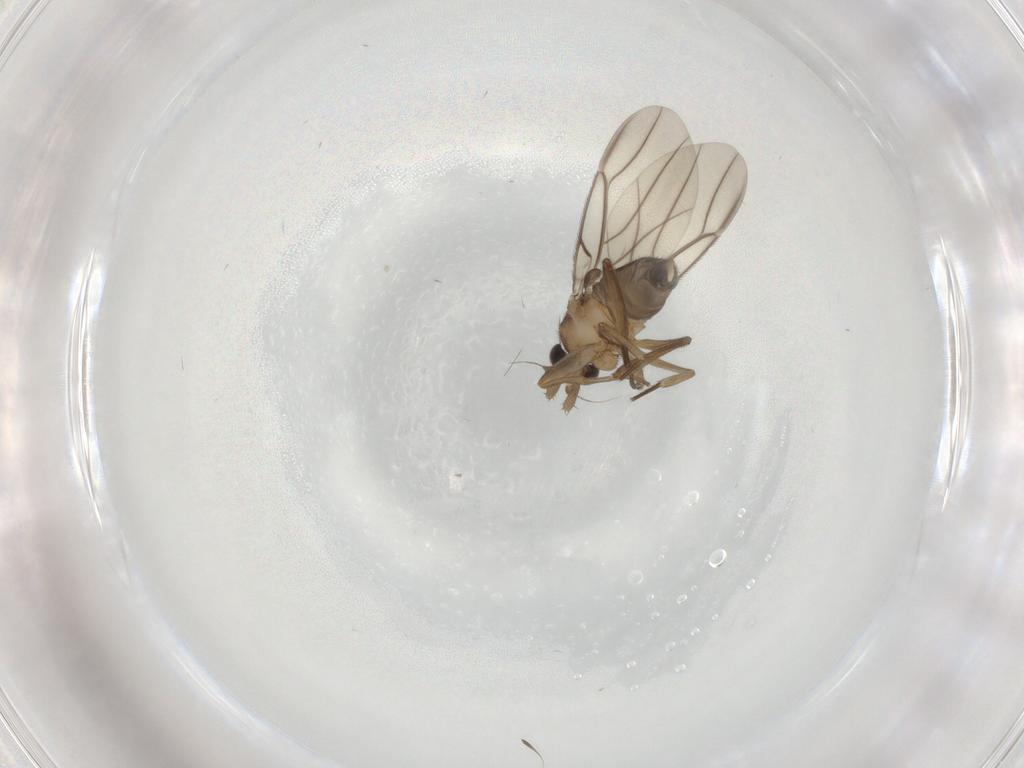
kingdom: Animalia
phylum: Arthropoda
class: Insecta
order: Diptera
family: Phoridae
